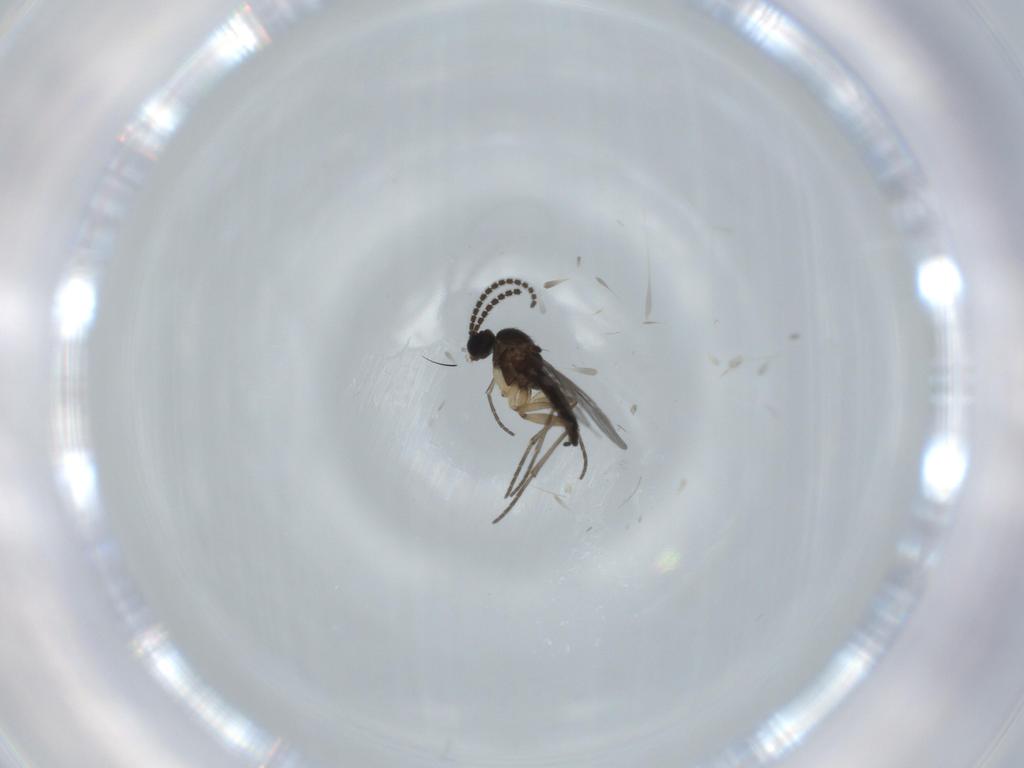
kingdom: Animalia
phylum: Arthropoda
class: Insecta
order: Diptera
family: Sciaridae
